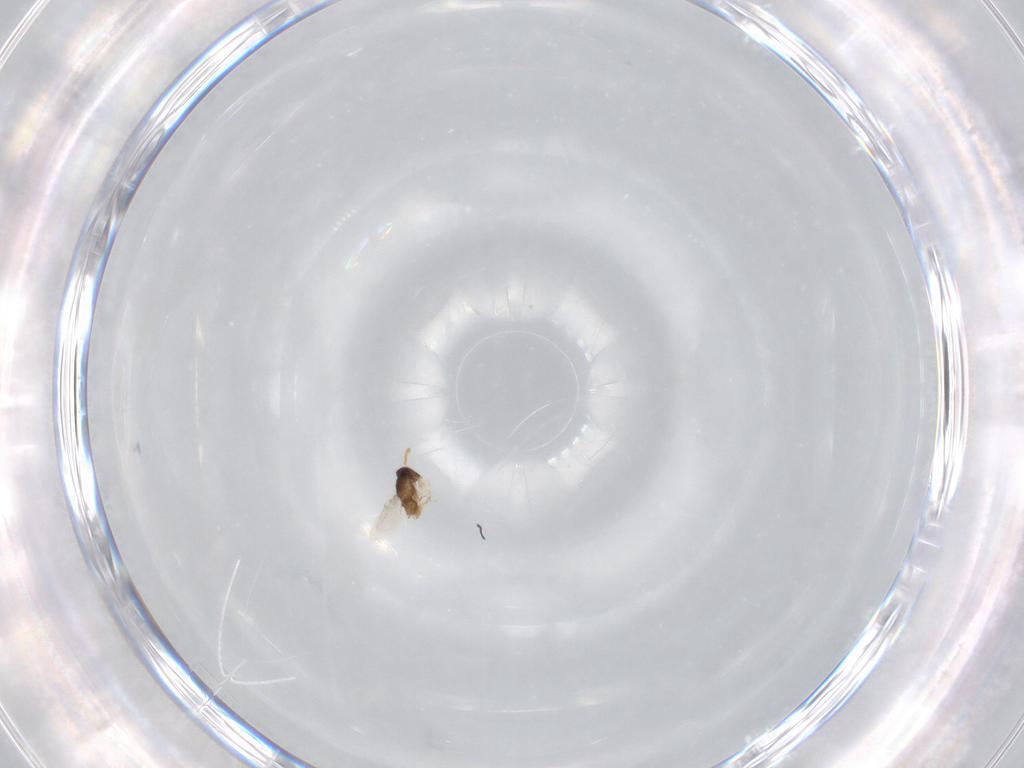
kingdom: Animalia
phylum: Arthropoda
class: Insecta
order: Hymenoptera
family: Encyrtidae
